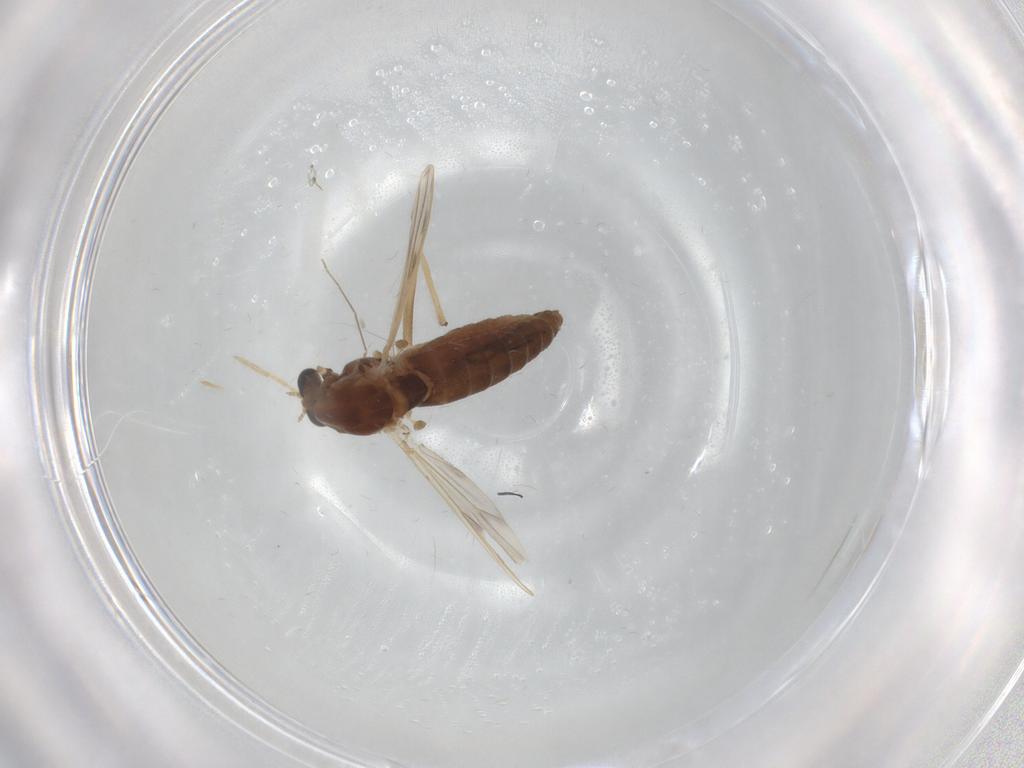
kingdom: Animalia
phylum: Arthropoda
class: Insecta
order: Diptera
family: Chironomidae
